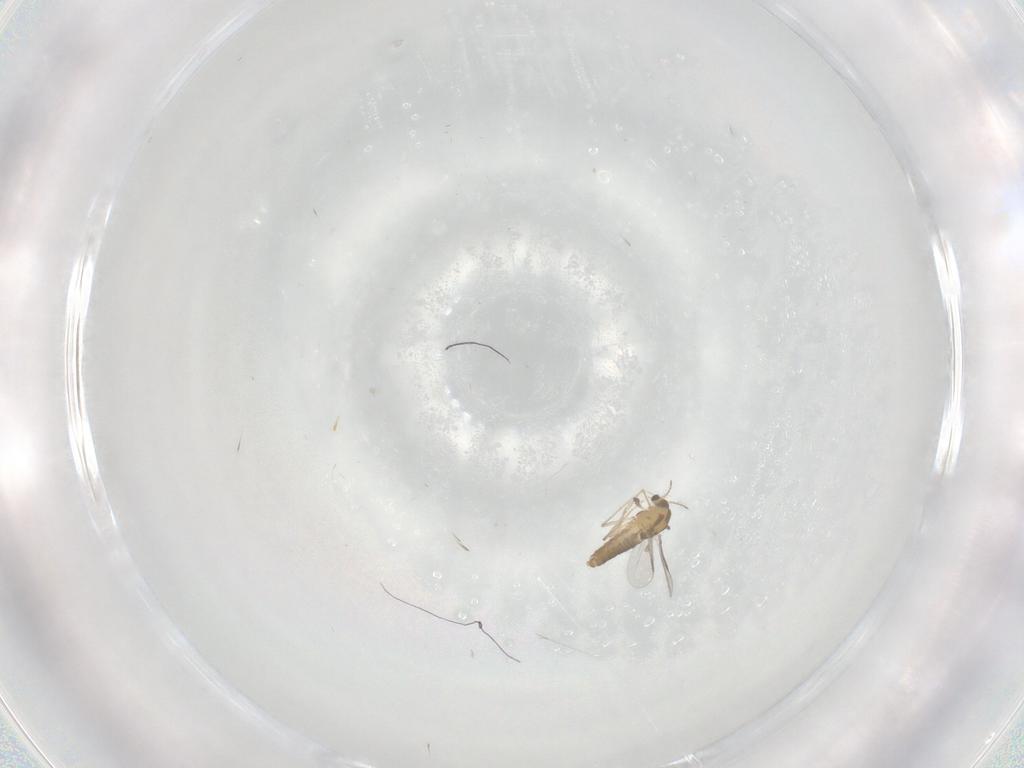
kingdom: Animalia
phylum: Arthropoda
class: Insecta
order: Diptera
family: Chironomidae
